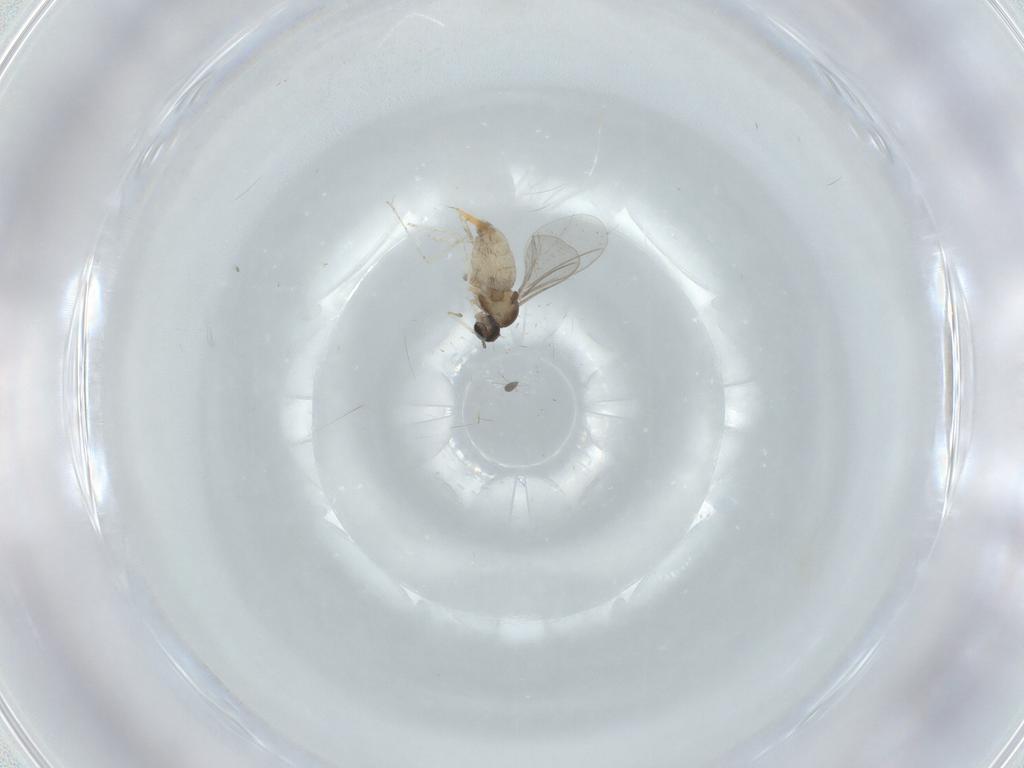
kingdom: Animalia
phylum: Arthropoda
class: Insecta
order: Diptera
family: Cecidomyiidae
